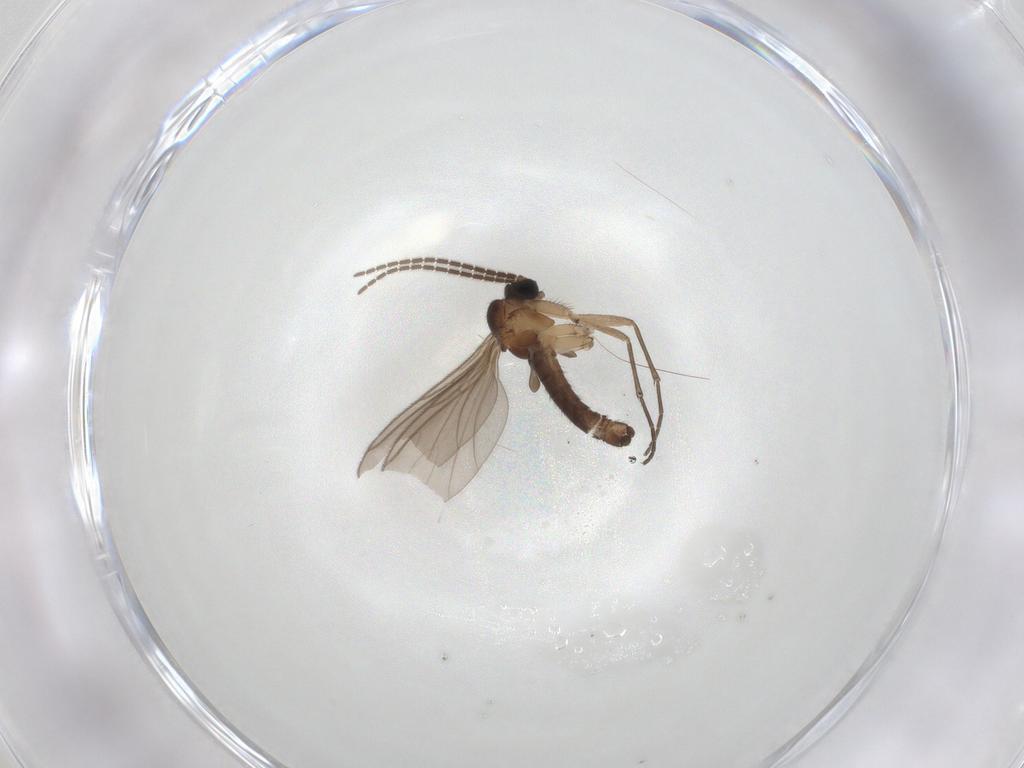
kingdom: Animalia
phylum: Arthropoda
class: Insecta
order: Diptera
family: Sciaridae
